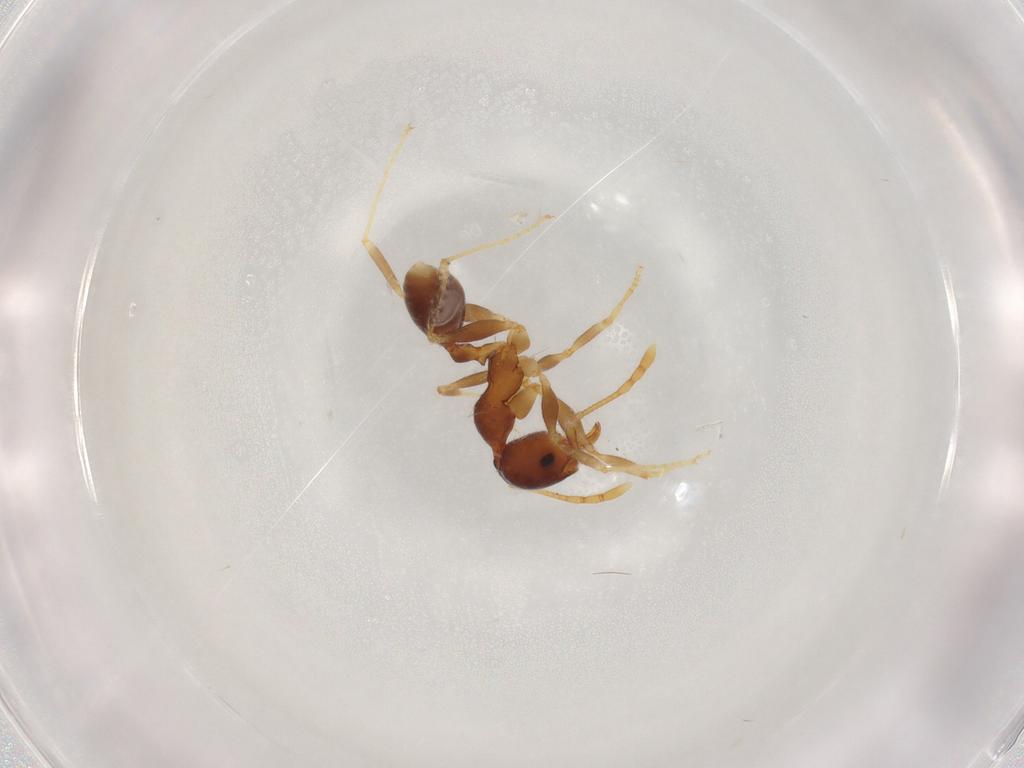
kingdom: Animalia
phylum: Arthropoda
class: Insecta
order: Hymenoptera
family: Formicidae
